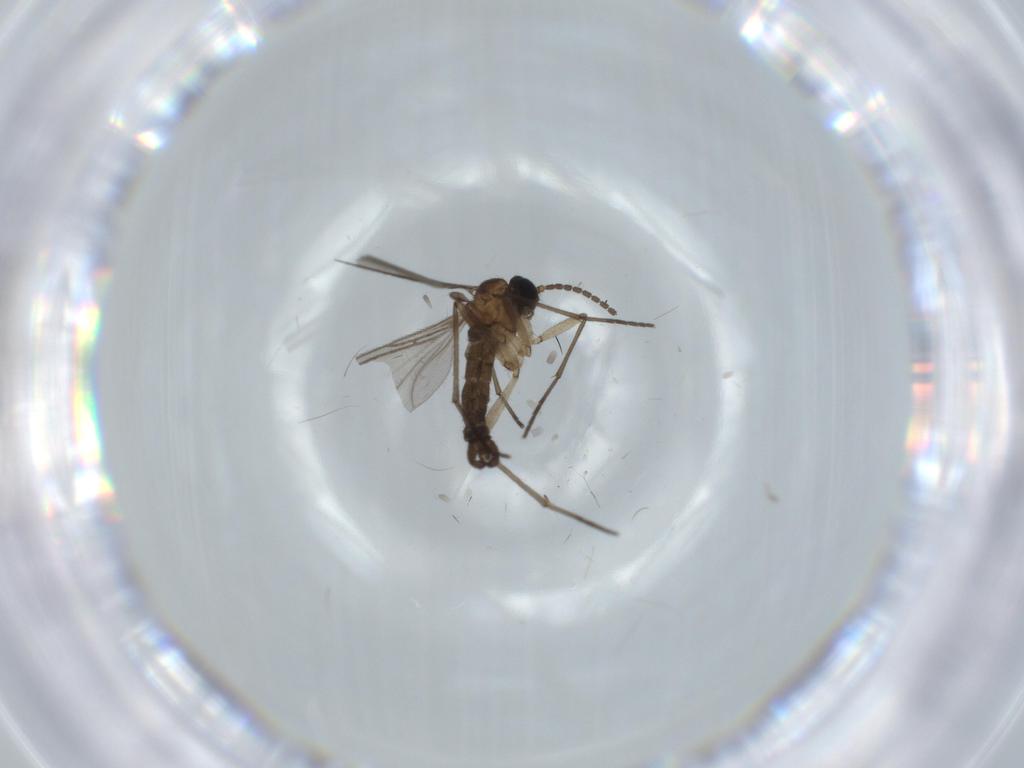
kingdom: Animalia
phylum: Arthropoda
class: Insecta
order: Diptera
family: Sciaridae
